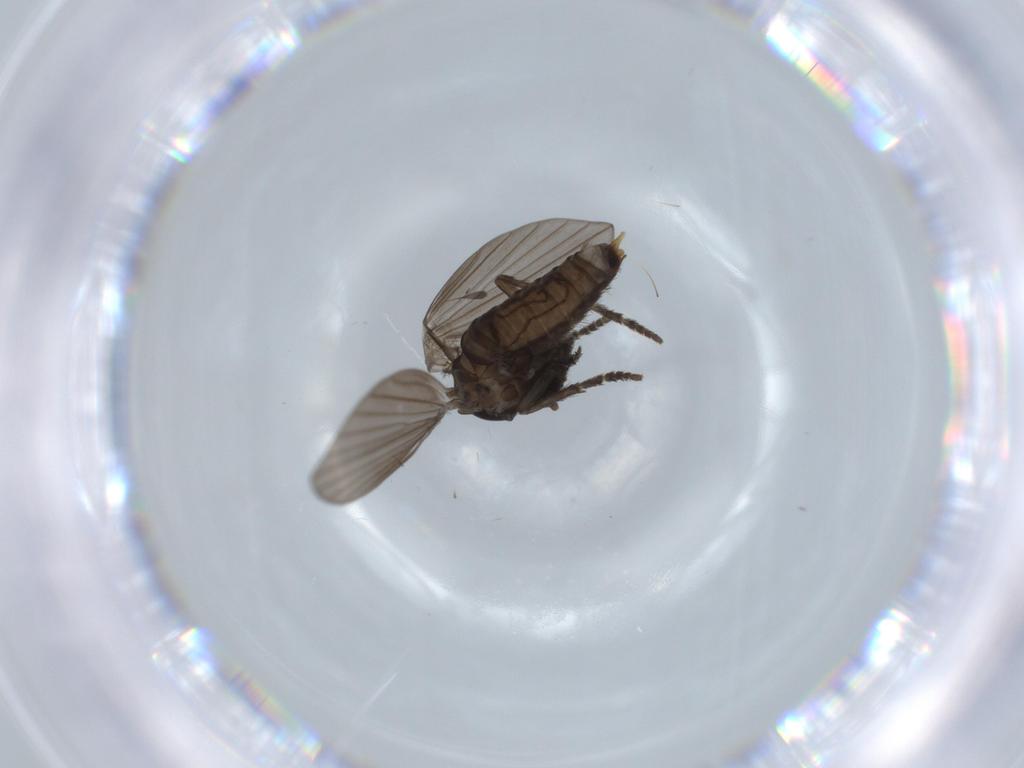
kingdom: Animalia
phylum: Arthropoda
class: Insecta
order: Diptera
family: Psychodidae
